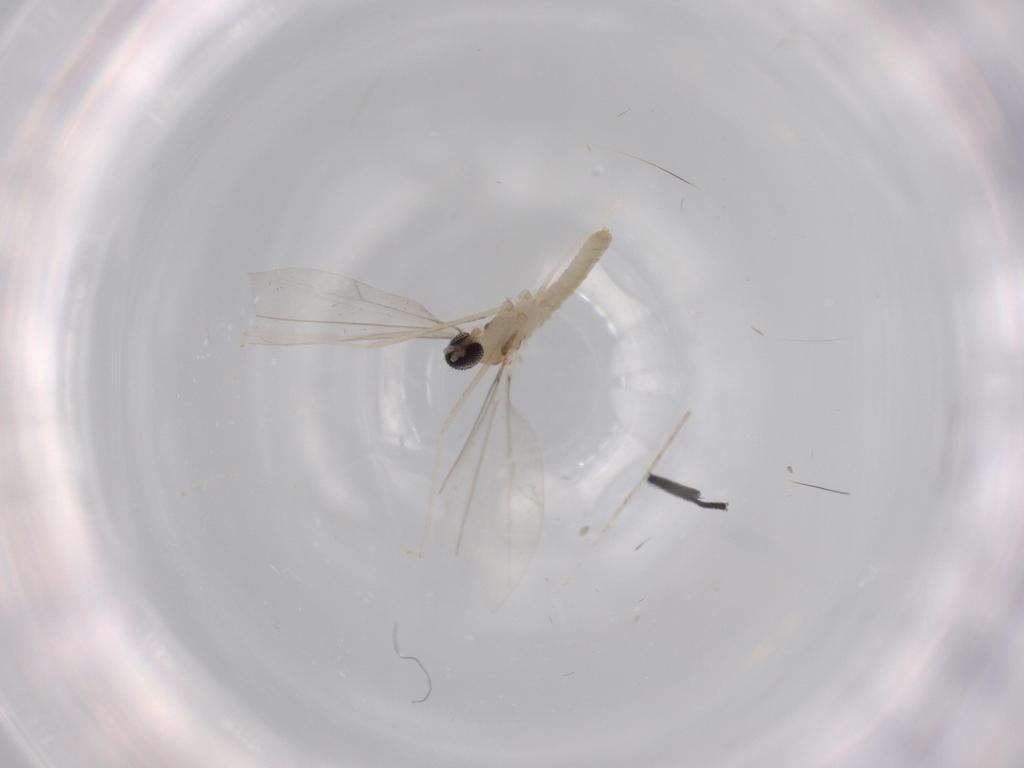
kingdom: Animalia
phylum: Arthropoda
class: Insecta
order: Diptera
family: Cecidomyiidae
